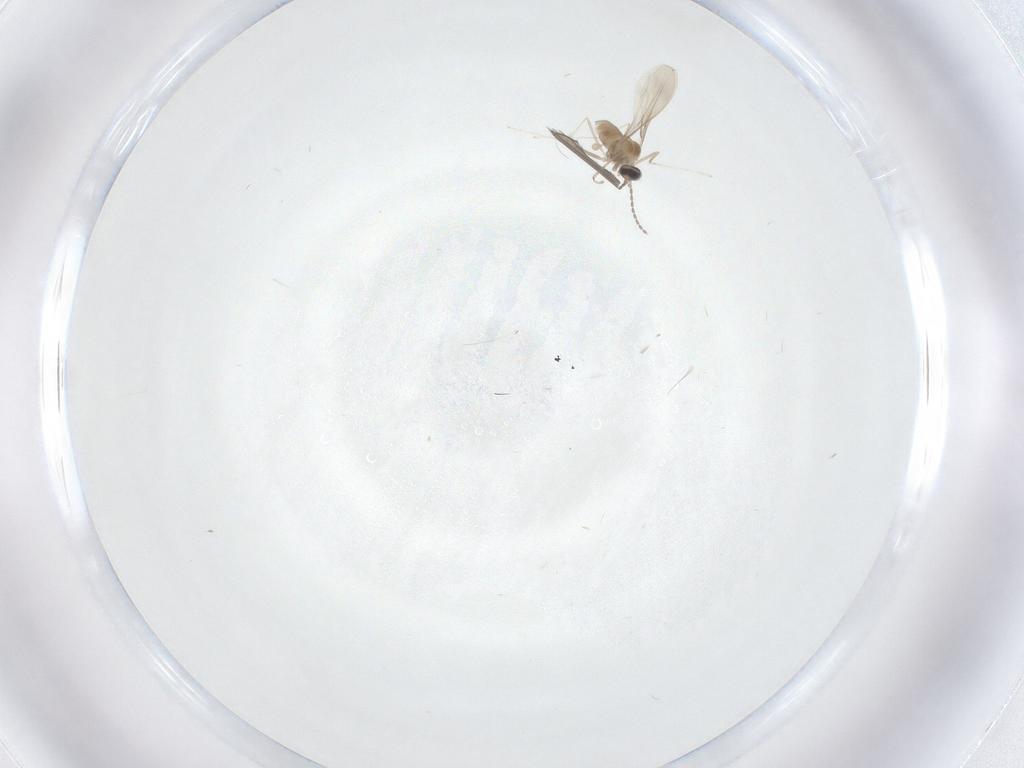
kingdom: Animalia
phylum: Arthropoda
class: Insecta
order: Diptera
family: Cecidomyiidae
